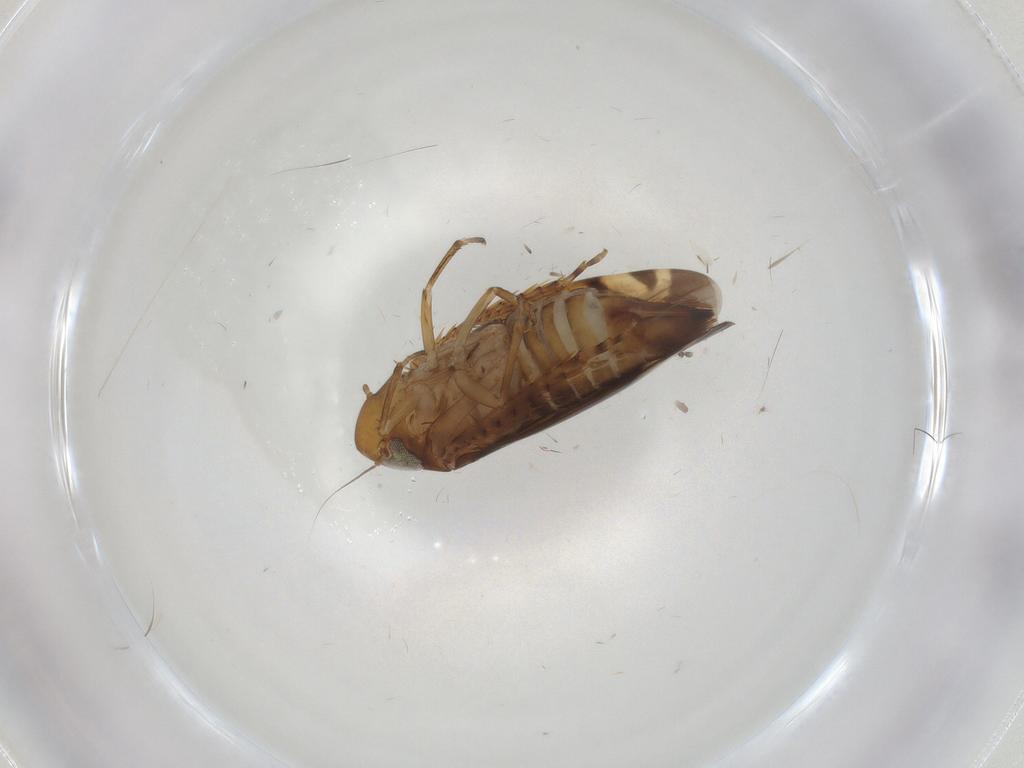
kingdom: Animalia
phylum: Arthropoda
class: Insecta
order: Hemiptera
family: Cicadellidae
